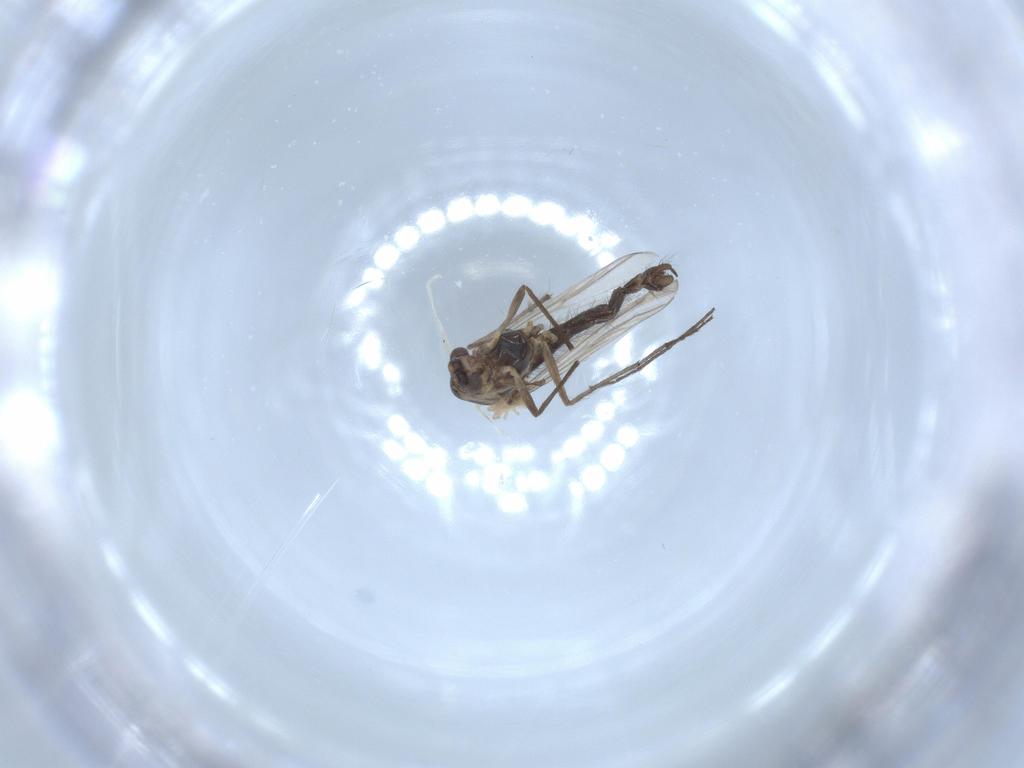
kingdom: Animalia
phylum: Arthropoda
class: Insecta
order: Diptera
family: Chironomidae
